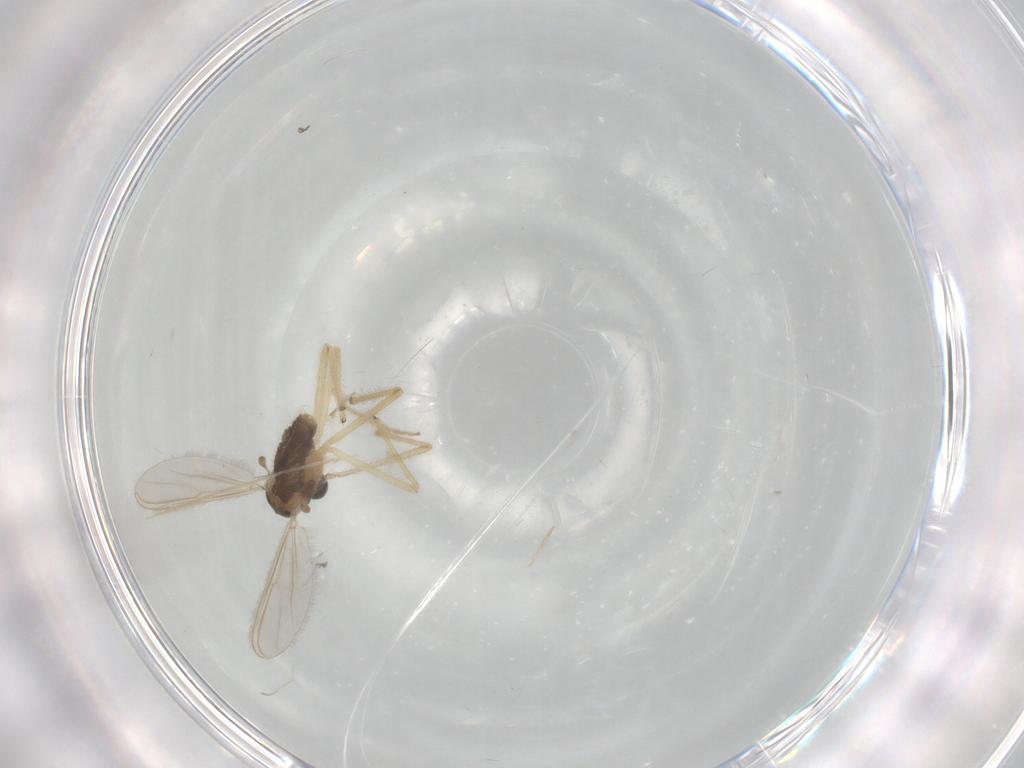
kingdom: Animalia
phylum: Arthropoda
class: Insecta
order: Diptera
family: Chironomidae
